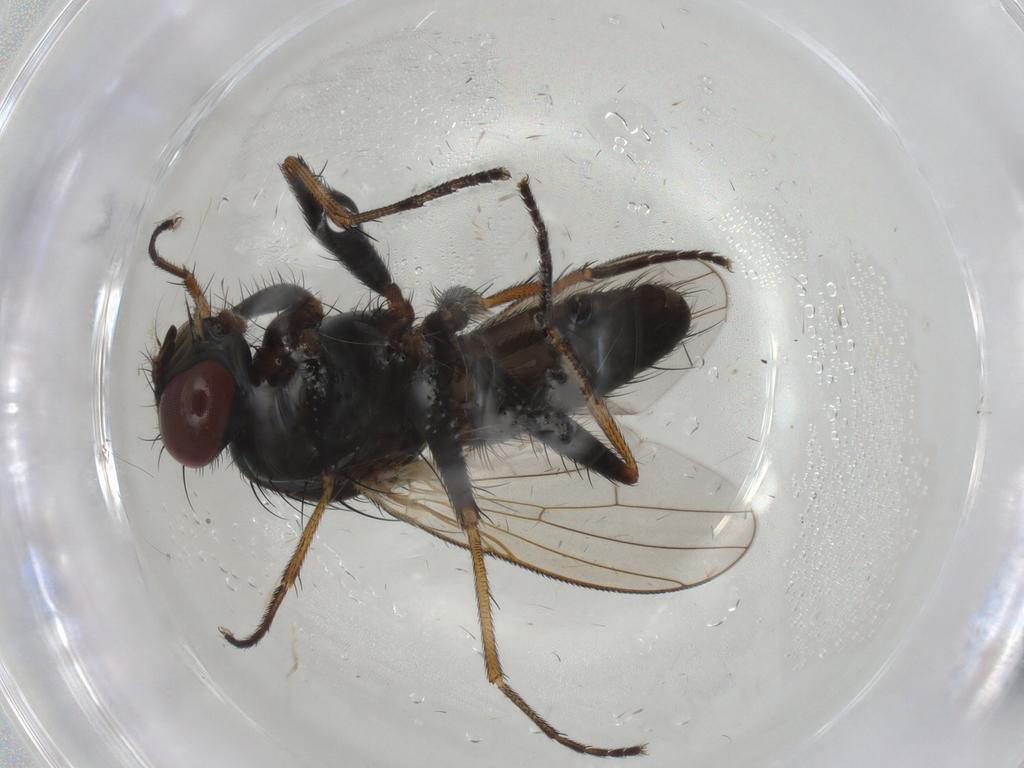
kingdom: Animalia
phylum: Arthropoda
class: Insecta
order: Diptera
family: Muscidae
